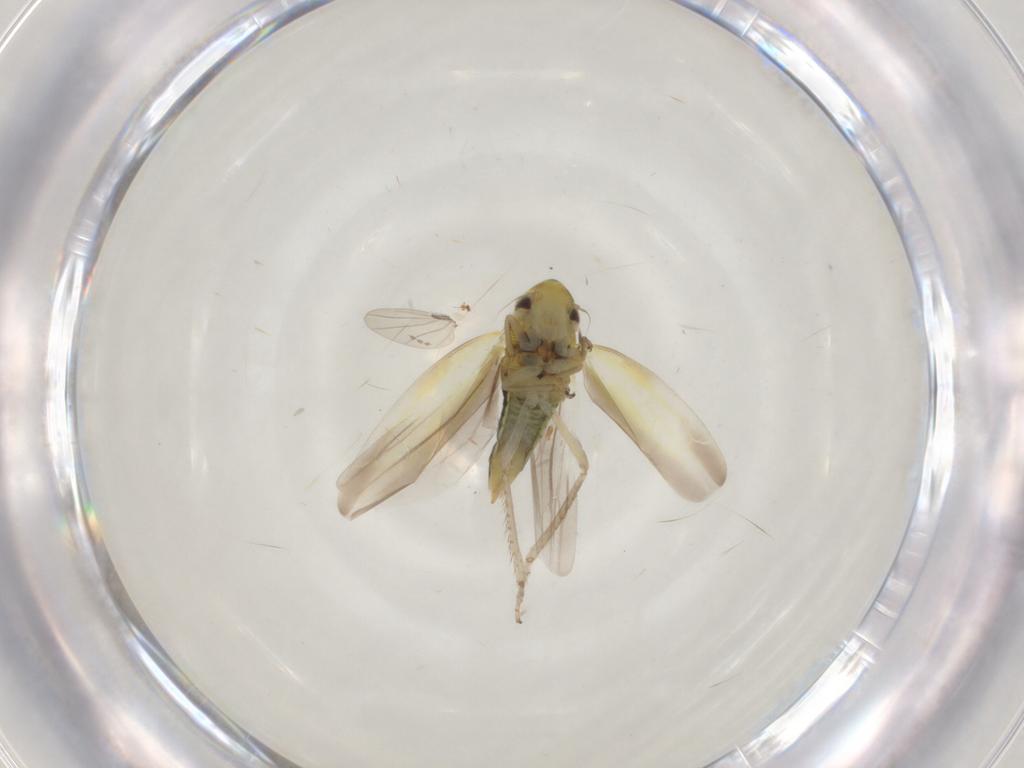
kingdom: Animalia
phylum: Arthropoda
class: Insecta
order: Hemiptera
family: Cicadellidae
